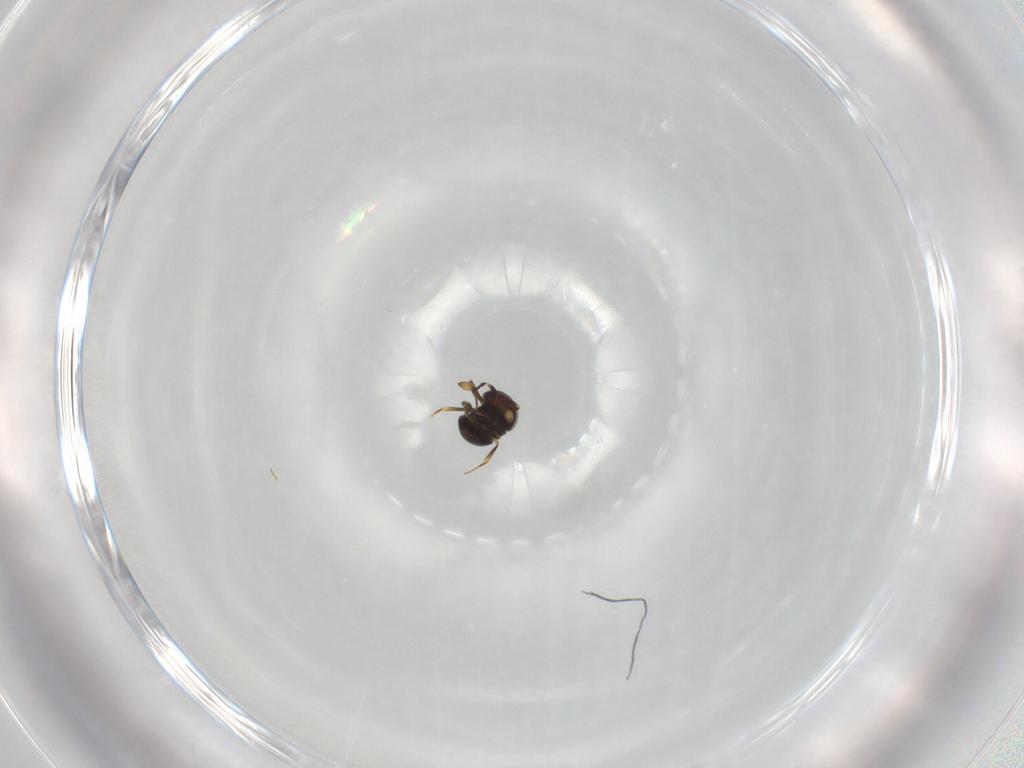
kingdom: Animalia
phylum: Arthropoda
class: Insecta
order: Hymenoptera
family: Scelionidae
